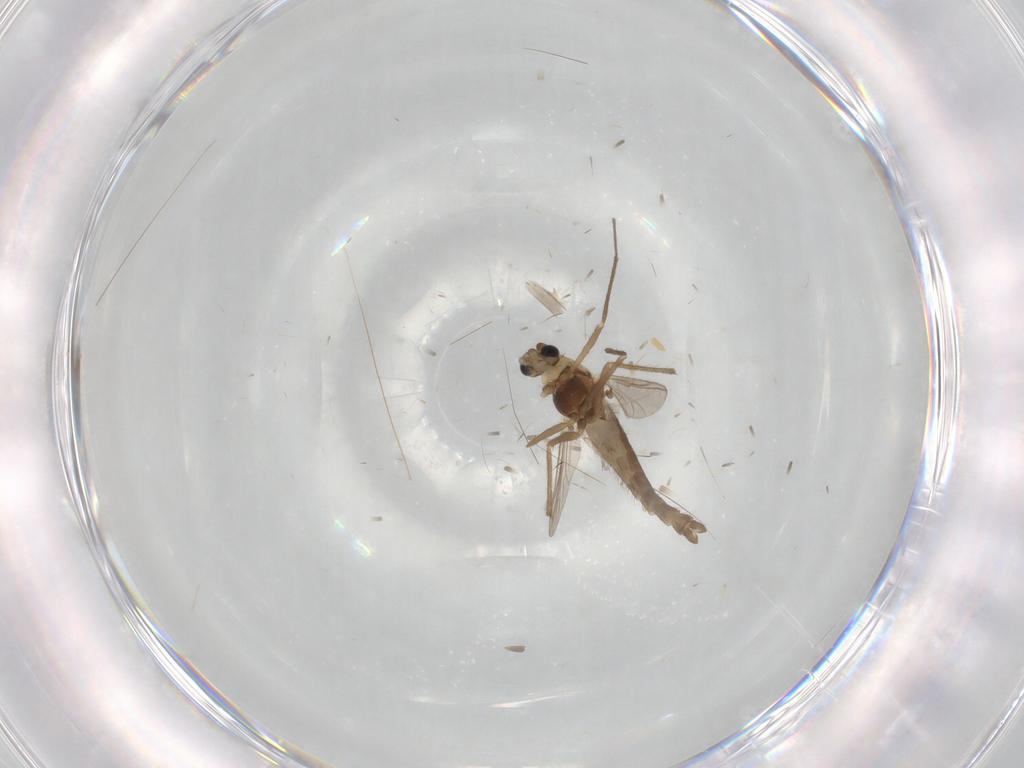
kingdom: Animalia
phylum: Arthropoda
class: Insecta
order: Diptera
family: Chironomidae
